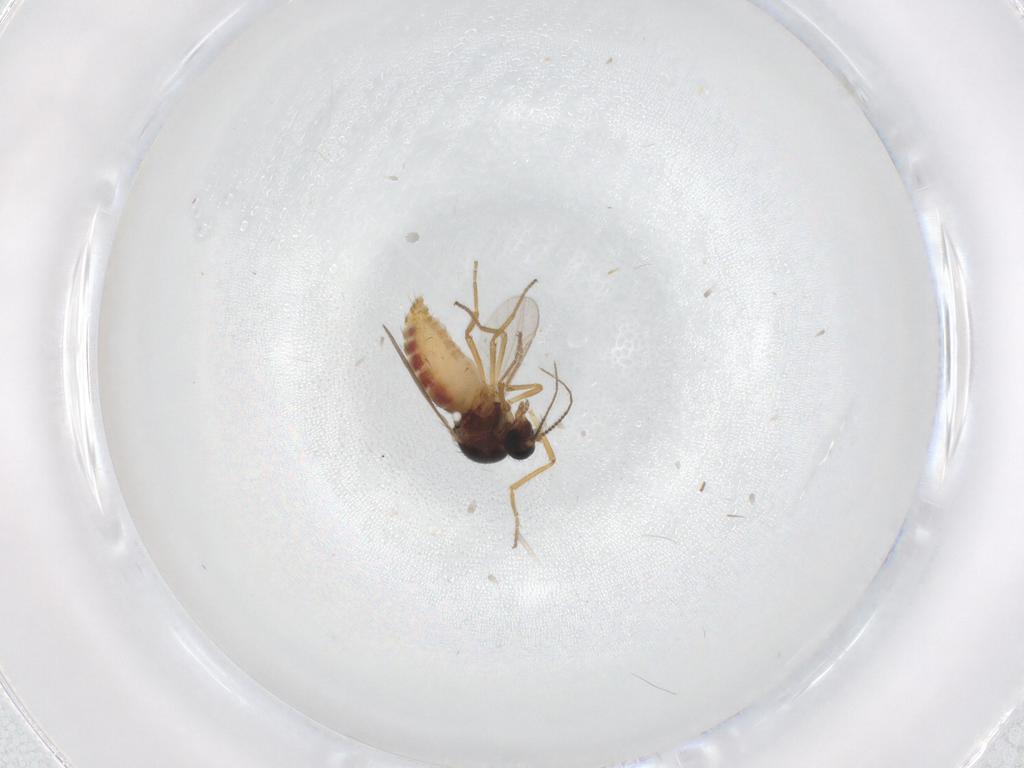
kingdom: Animalia
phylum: Arthropoda
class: Insecta
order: Diptera
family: Ceratopogonidae
